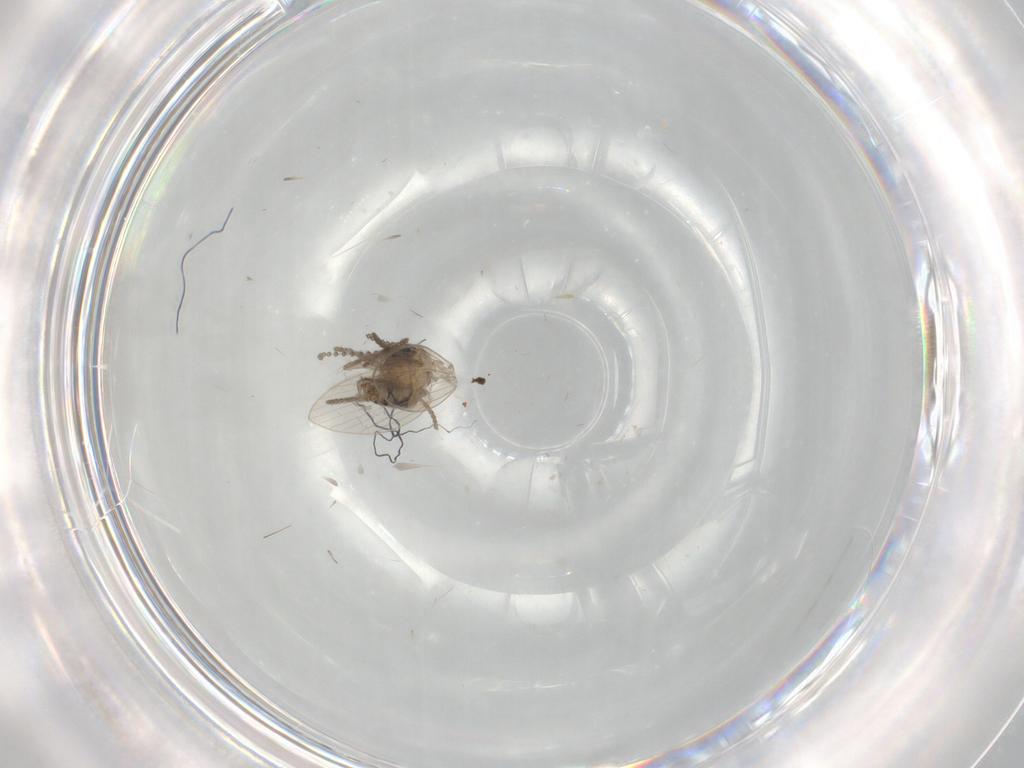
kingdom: Animalia
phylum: Arthropoda
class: Insecta
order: Diptera
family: Psychodidae
